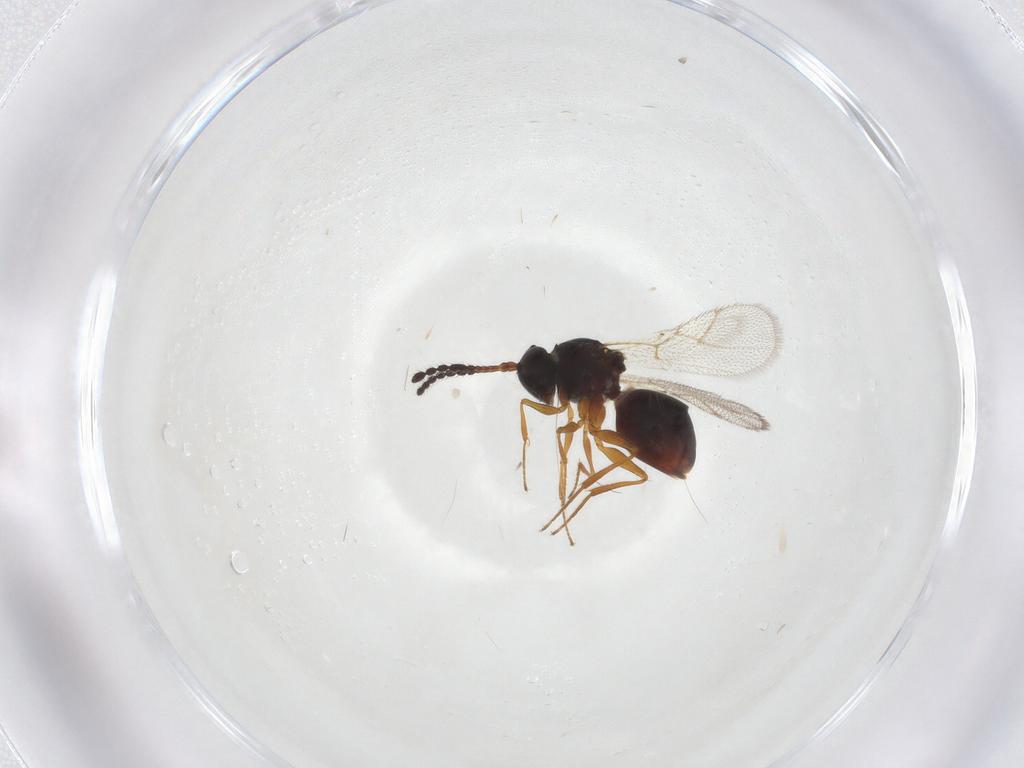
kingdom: Animalia
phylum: Arthropoda
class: Insecta
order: Hymenoptera
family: Figitidae
